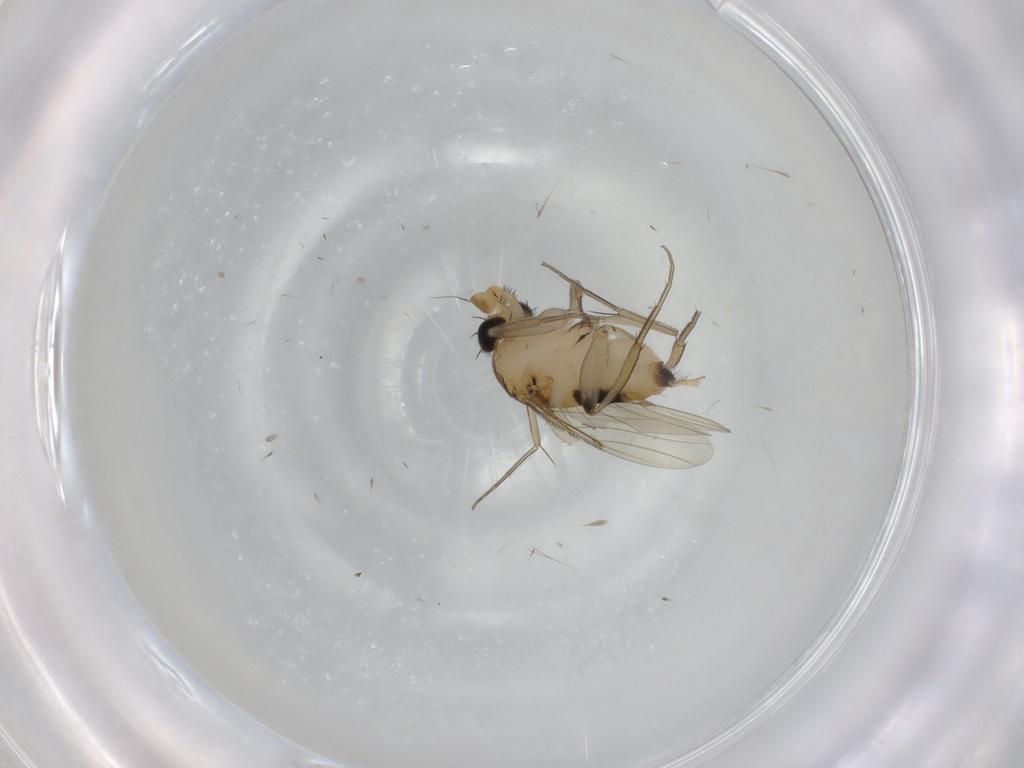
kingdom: Animalia
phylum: Arthropoda
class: Insecta
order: Diptera
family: Phoridae
